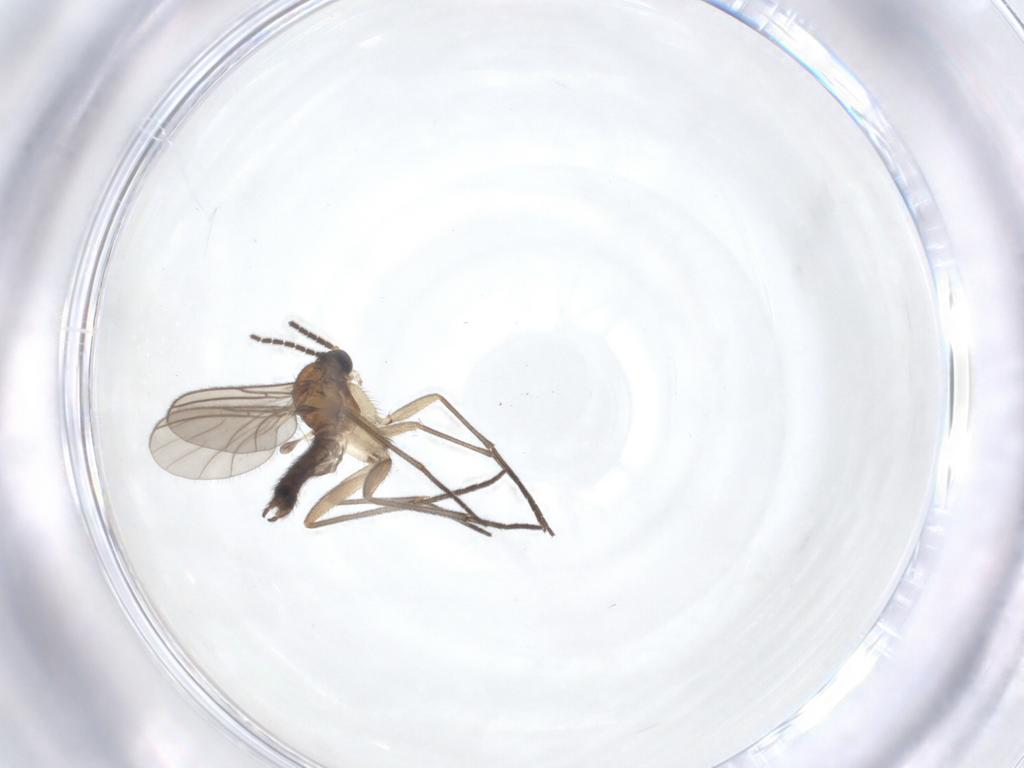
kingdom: Animalia
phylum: Arthropoda
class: Insecta
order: Diptera
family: Sciaridae
